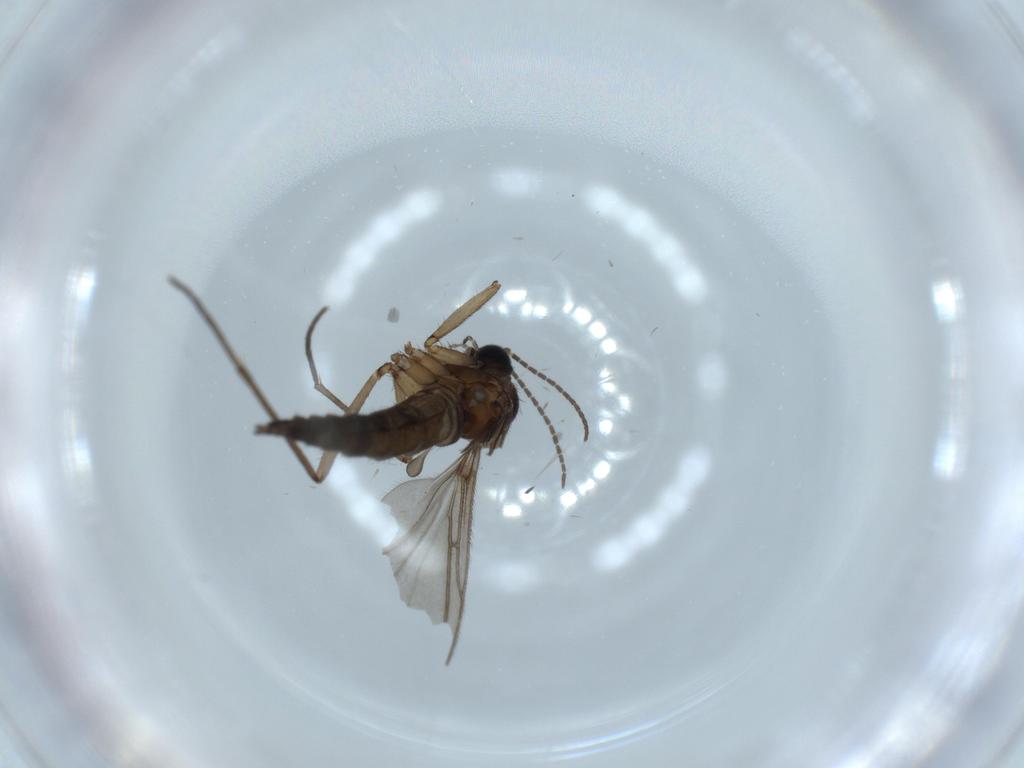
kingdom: Animalia
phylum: Arthropoda
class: Insecta
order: Diptera
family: Sciaridae
